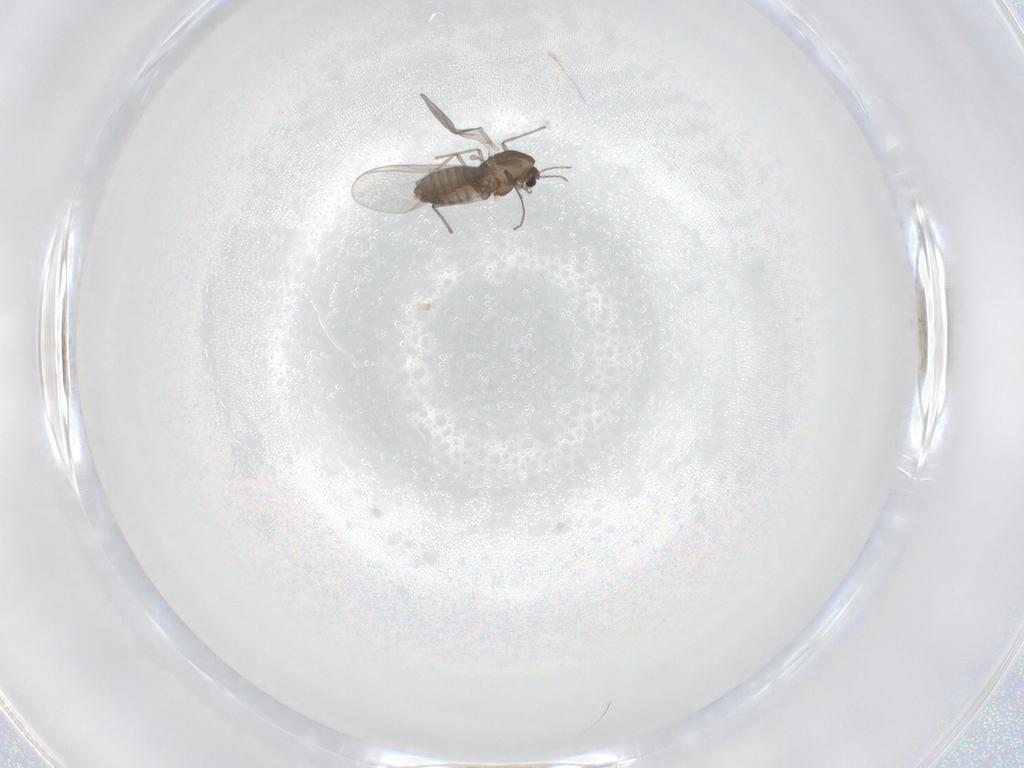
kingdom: Animalia
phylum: Arthropoda
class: Insecta
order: Diptera
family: Chironomidae
